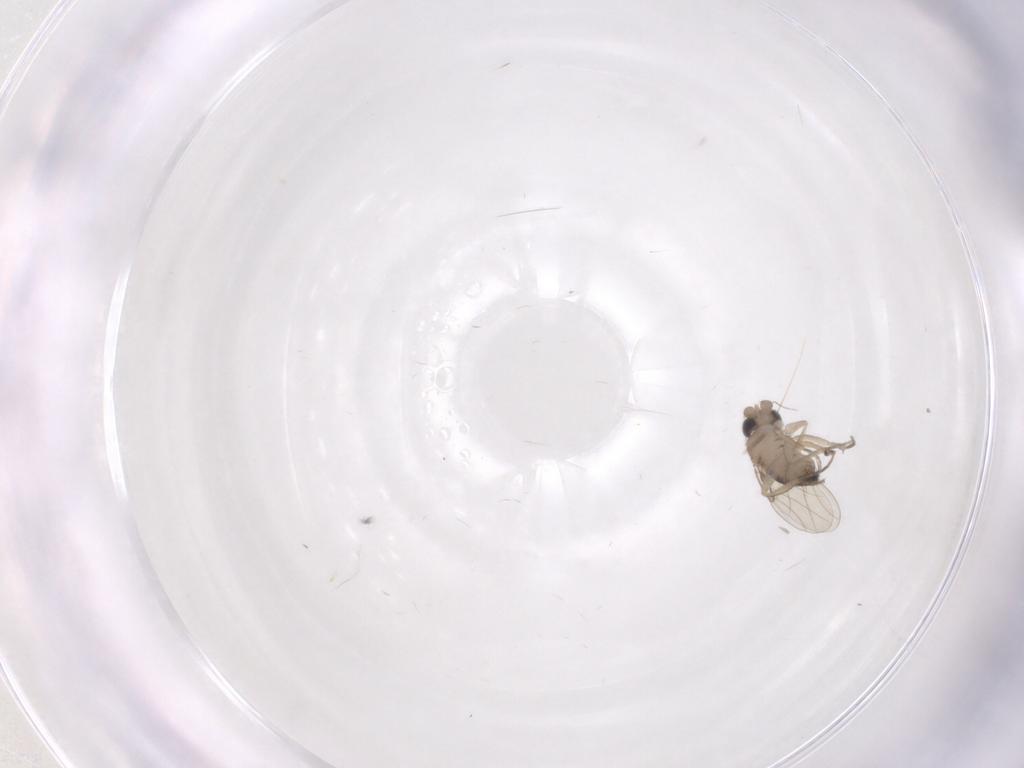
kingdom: Animalia
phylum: Arthropoda
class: Insecta
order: Diptera
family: Phoridae
